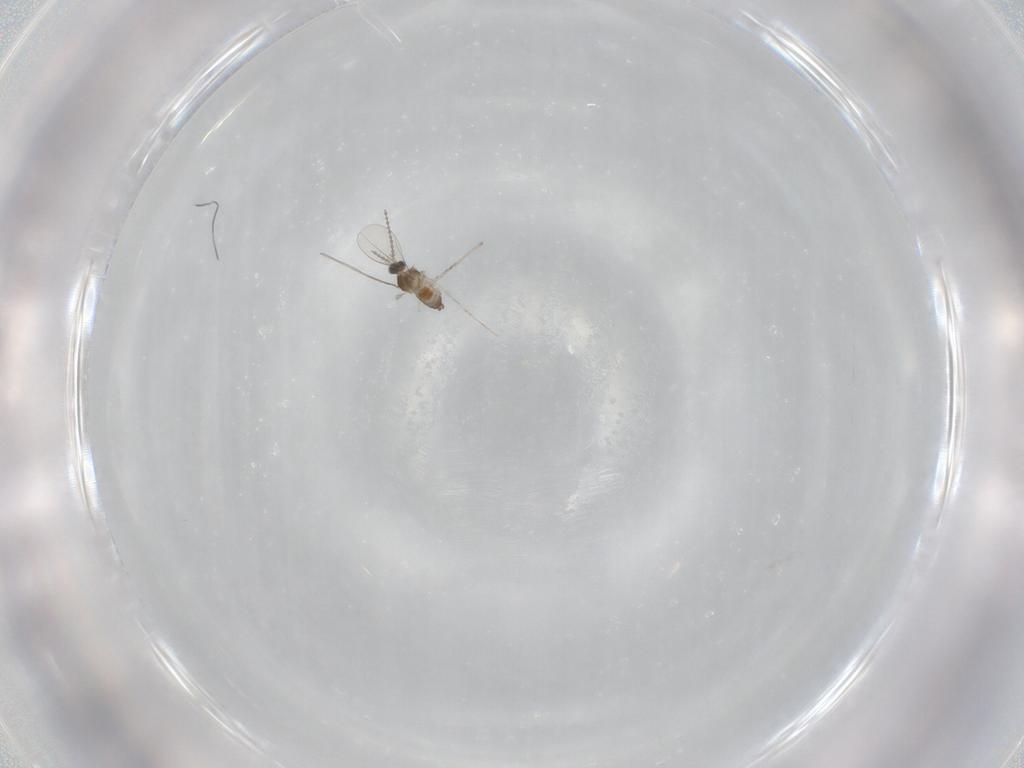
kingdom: Animalia
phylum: Arthropoda
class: Insecta
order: Diptera
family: Cecidomyiidae
